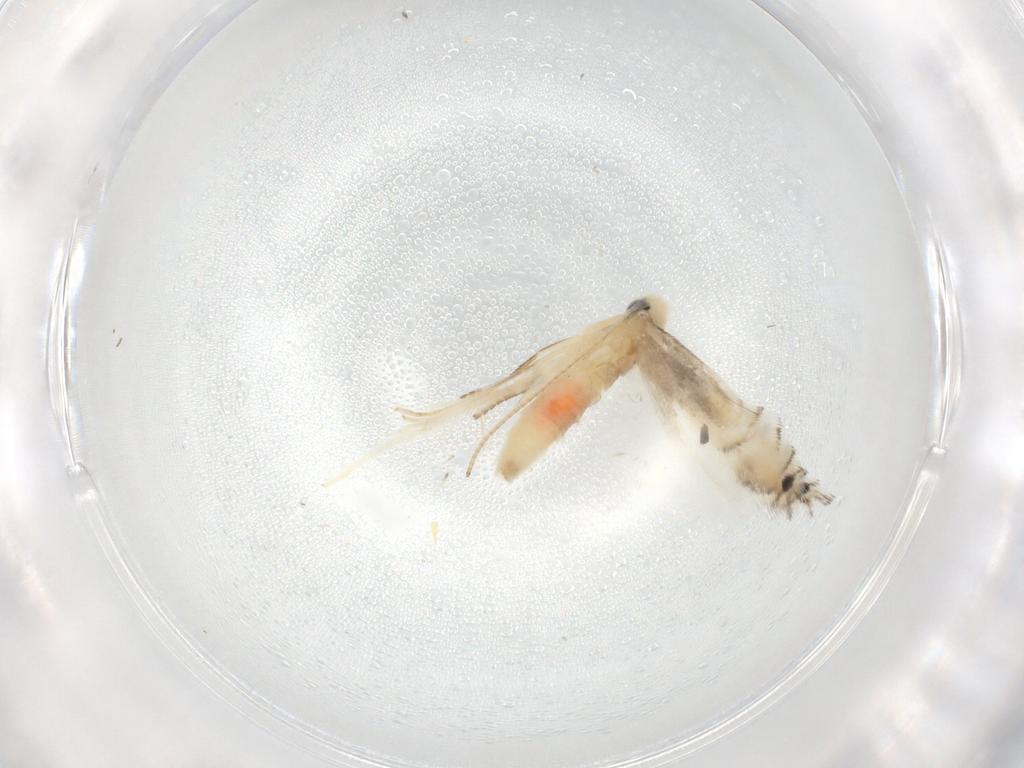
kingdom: Animalia
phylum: Arthropoda
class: Insecta
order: Lepidoptera
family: Gracillariidae
